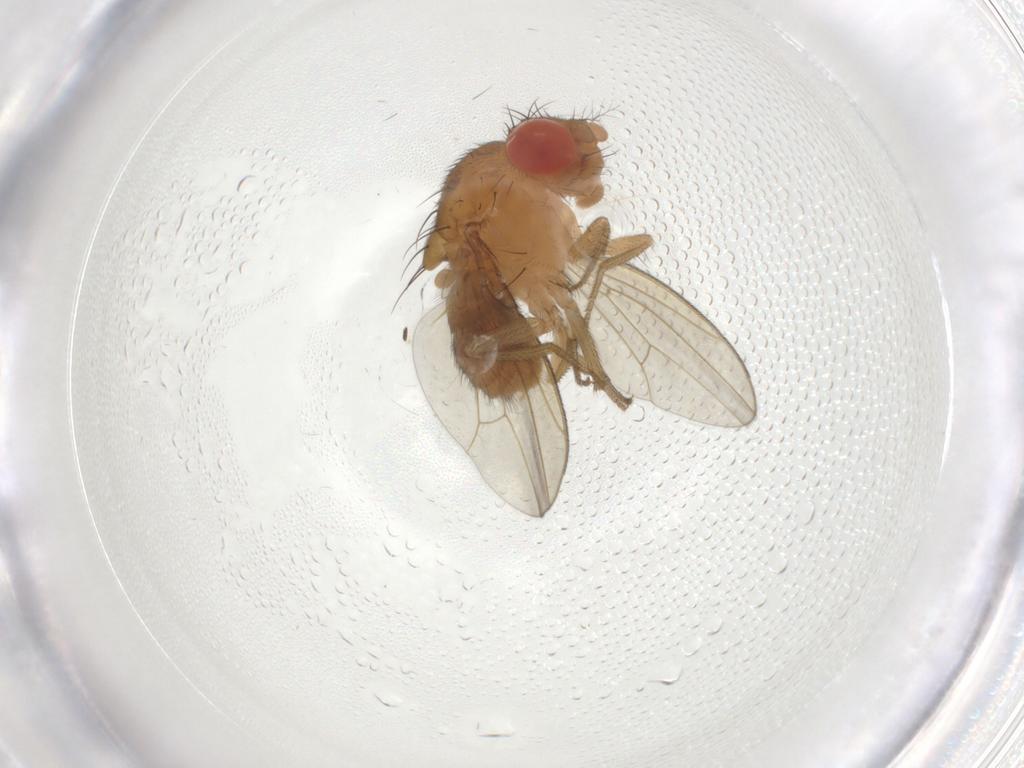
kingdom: Animalia
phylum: Arthropoda
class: Insecta
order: Diptera
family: Drosophilidae
